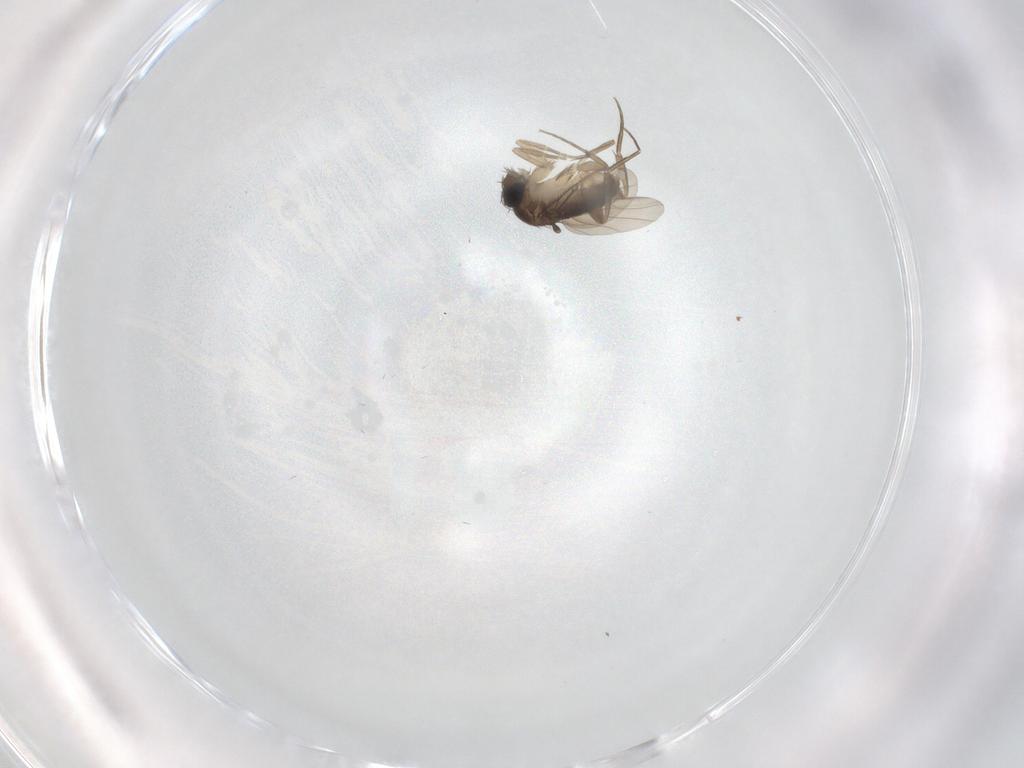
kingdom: Animalia
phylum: Arthropoda
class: Insecta
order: Diptera
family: Phoridae
